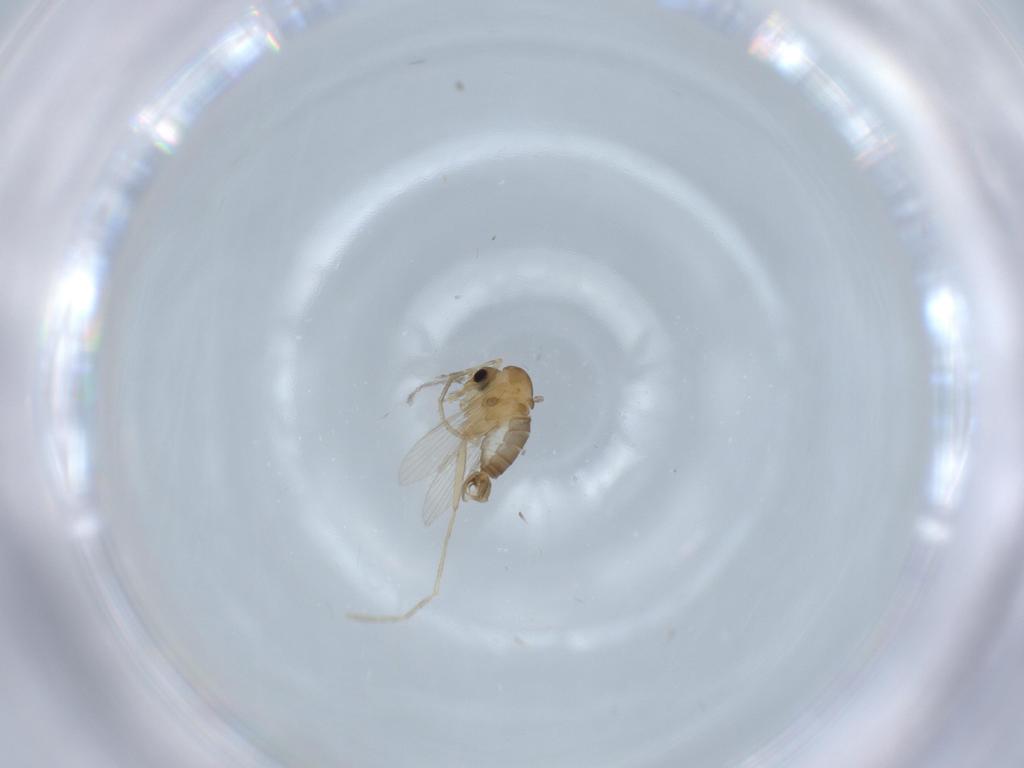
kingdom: Animalia
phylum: Arthropoda
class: Insecta
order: Diptera
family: Psychodidae
